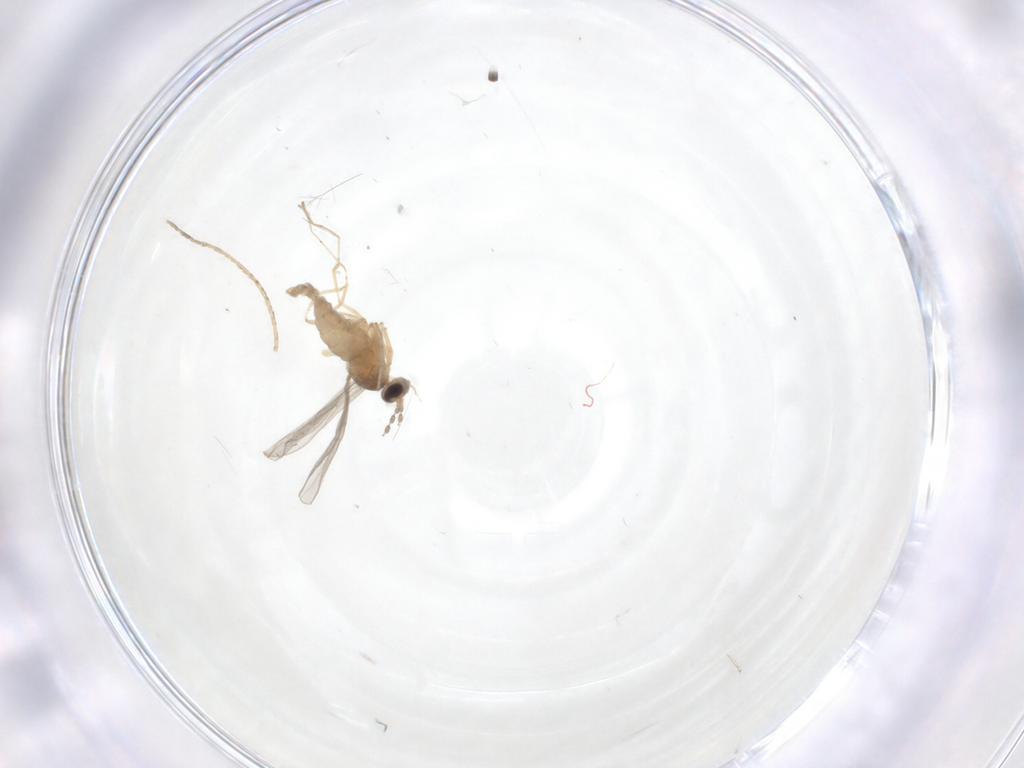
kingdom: Animalia
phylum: Arthropoda
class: Insecta
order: Diptera
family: Cecidomyiidae
